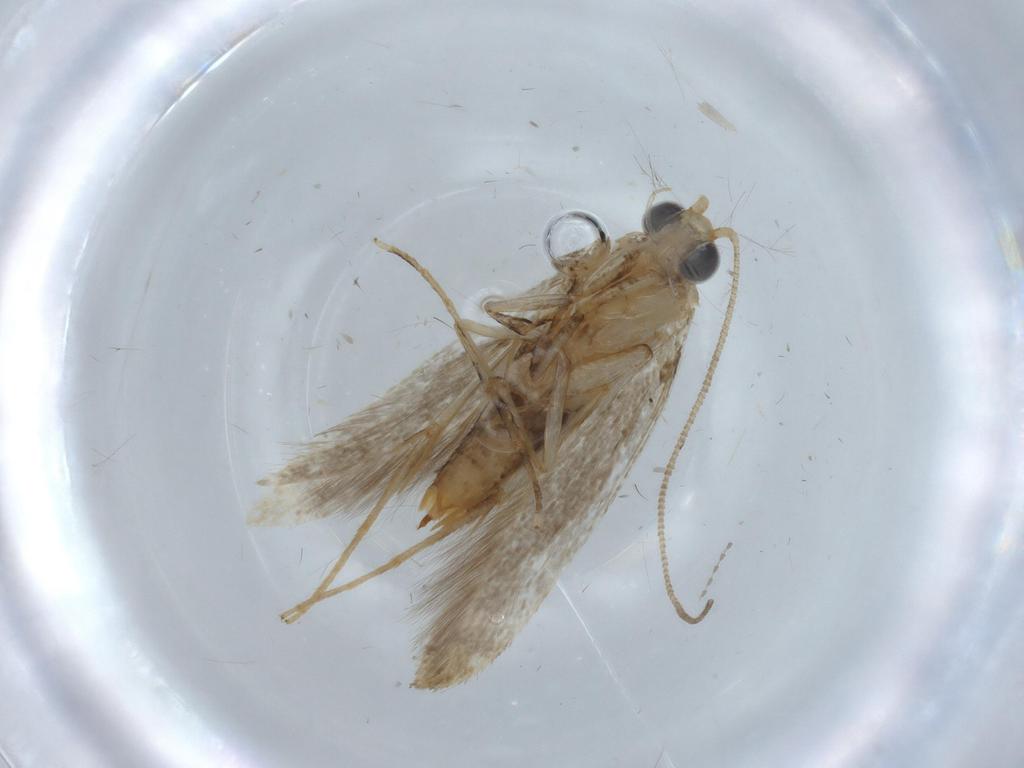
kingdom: Animalia
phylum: Arthropoda
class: Insecta
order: Lepidoptera
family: Tineidae
